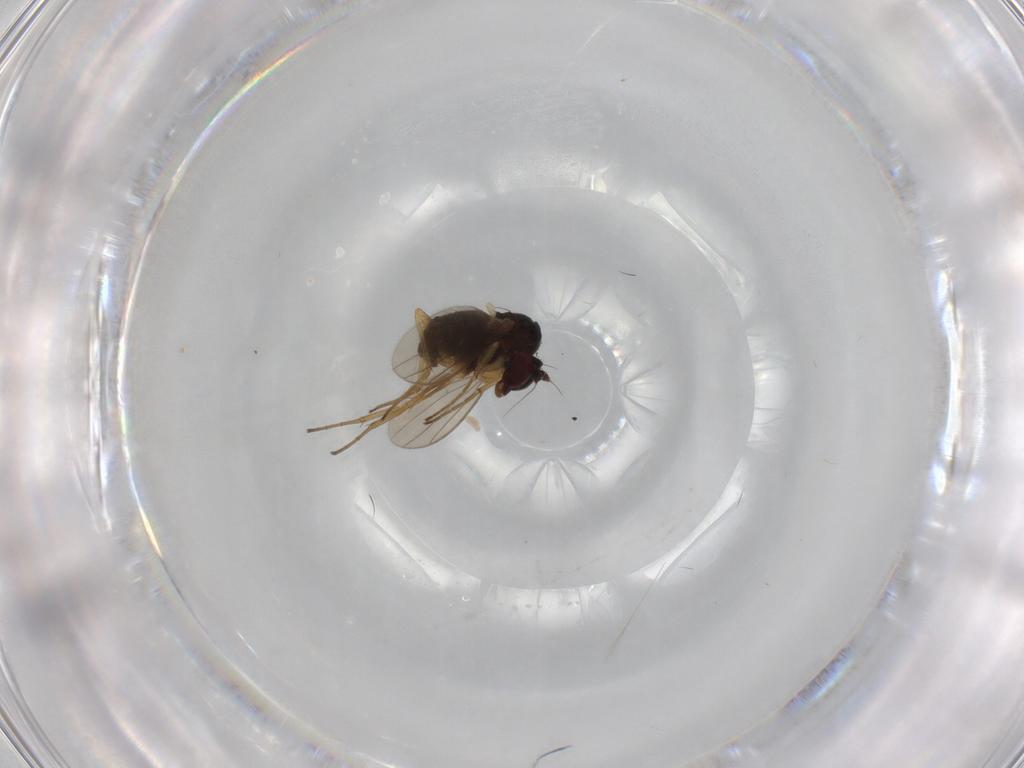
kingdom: Animalia
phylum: Arthropoda
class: Insecta
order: Diptera
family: Dolichopodidae
